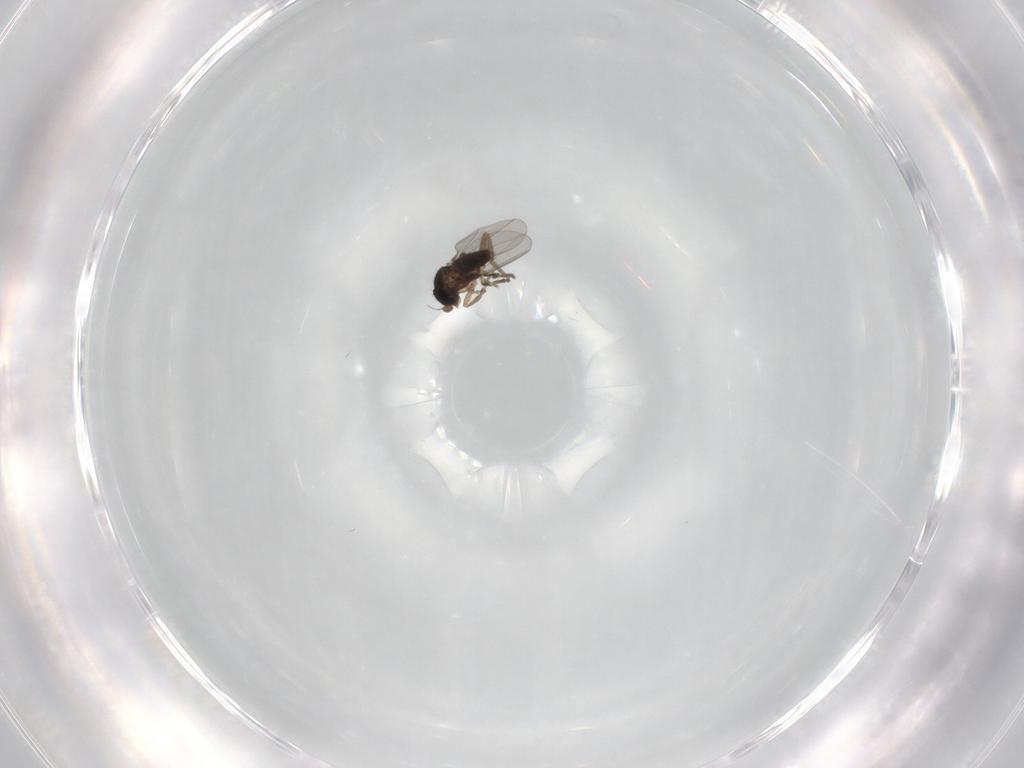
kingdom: Animalia
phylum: Arthropoda
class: Insecta
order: Diptera
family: Phoridae
